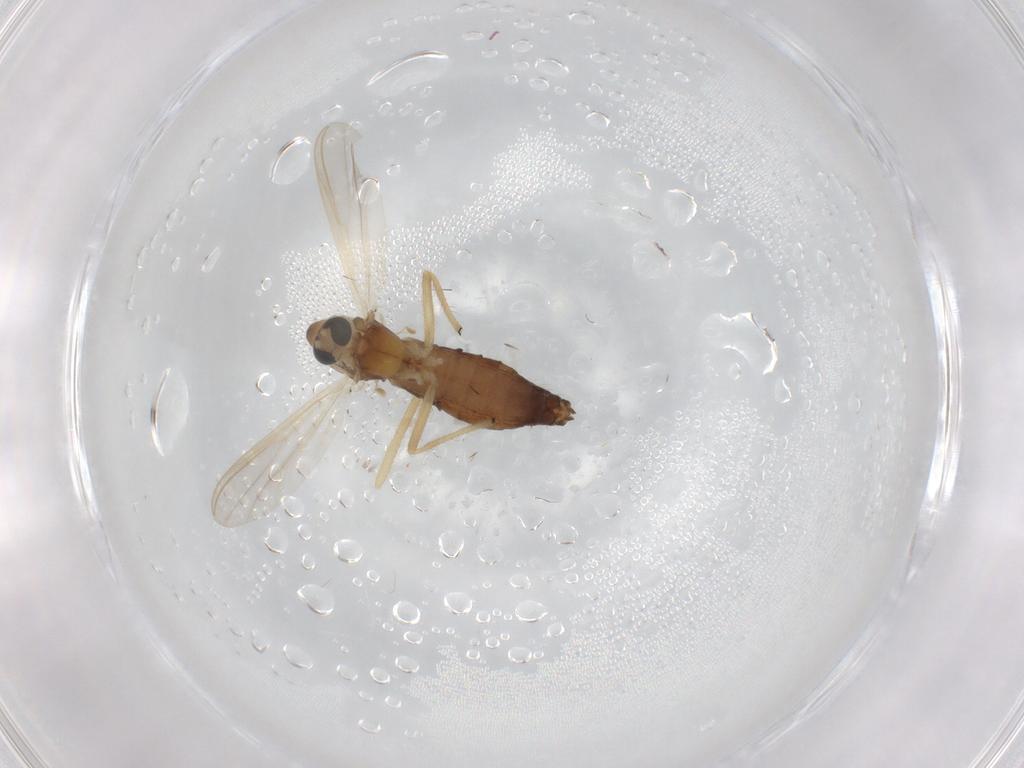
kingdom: Animalia
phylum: Arthropoda
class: Insecta
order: Diptera
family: Chironomidae
